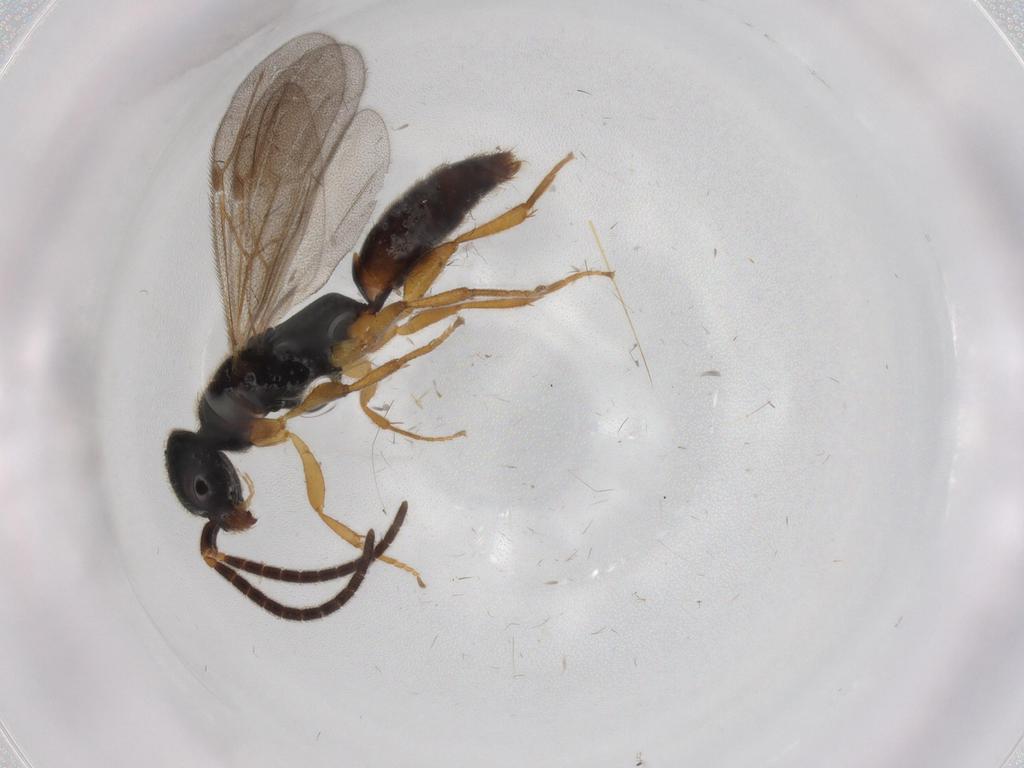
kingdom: Animalia
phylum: Arthropoda
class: Insecta
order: Hymenoptera
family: Bethylidae
